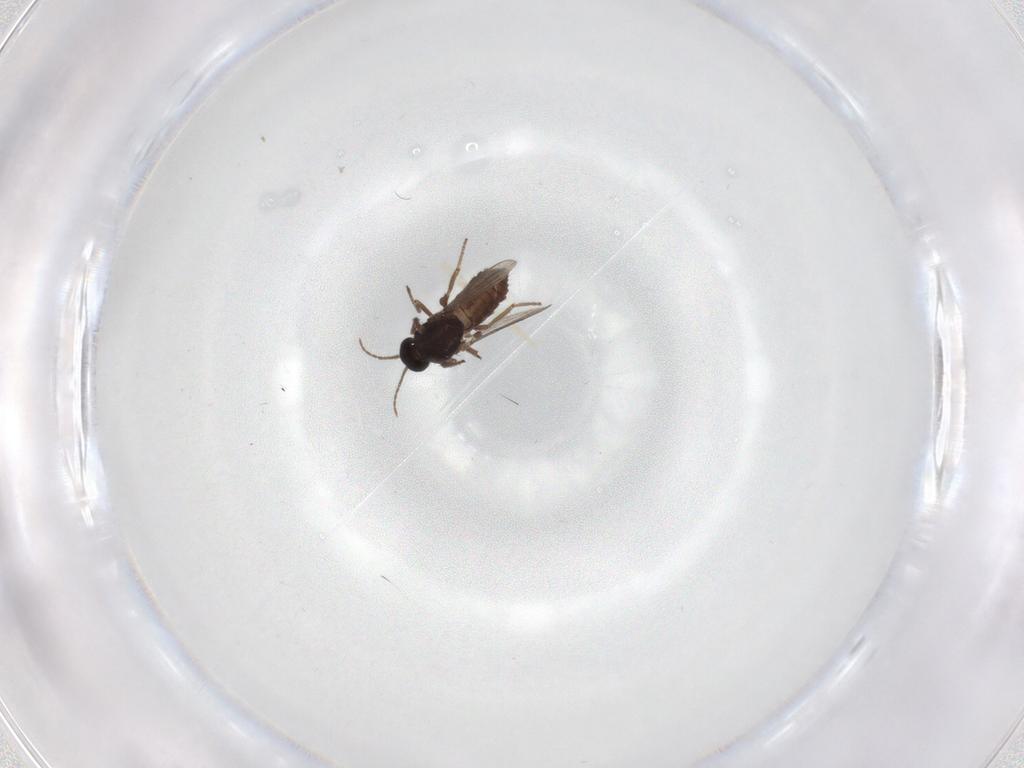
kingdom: Animalia
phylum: Arthropoda
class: Insecta
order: Diptera
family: Ceratopogonidae
